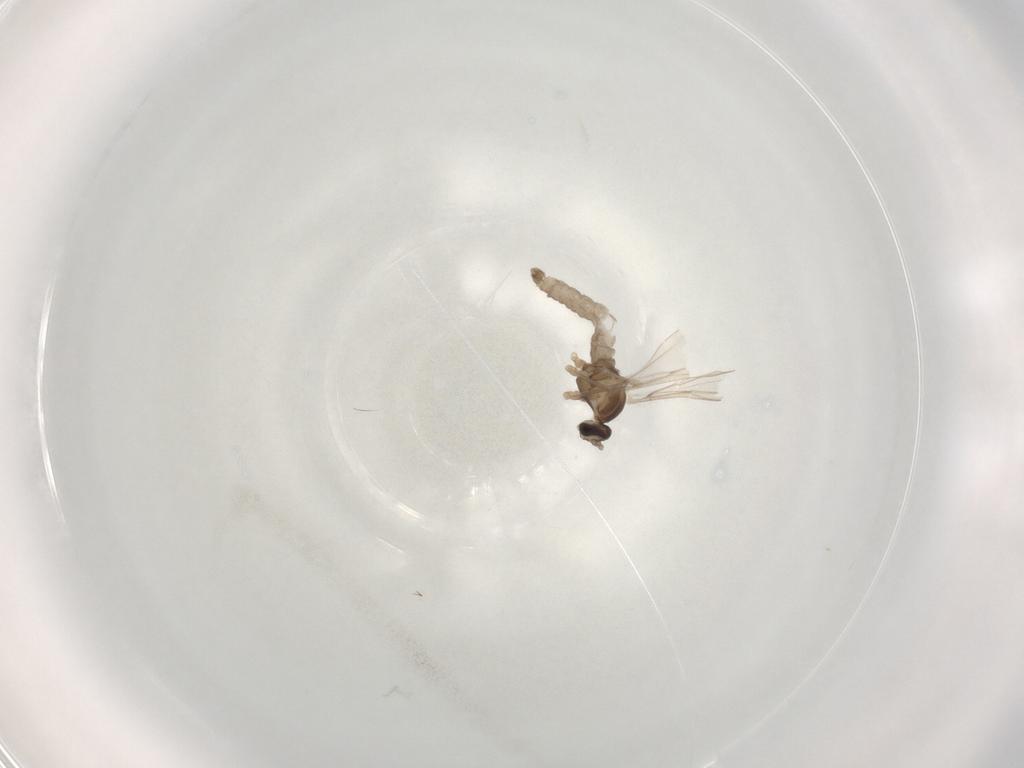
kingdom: Animalia
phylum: Arthropoda
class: Insecta
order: Diptera
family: Cecidomyiidae
